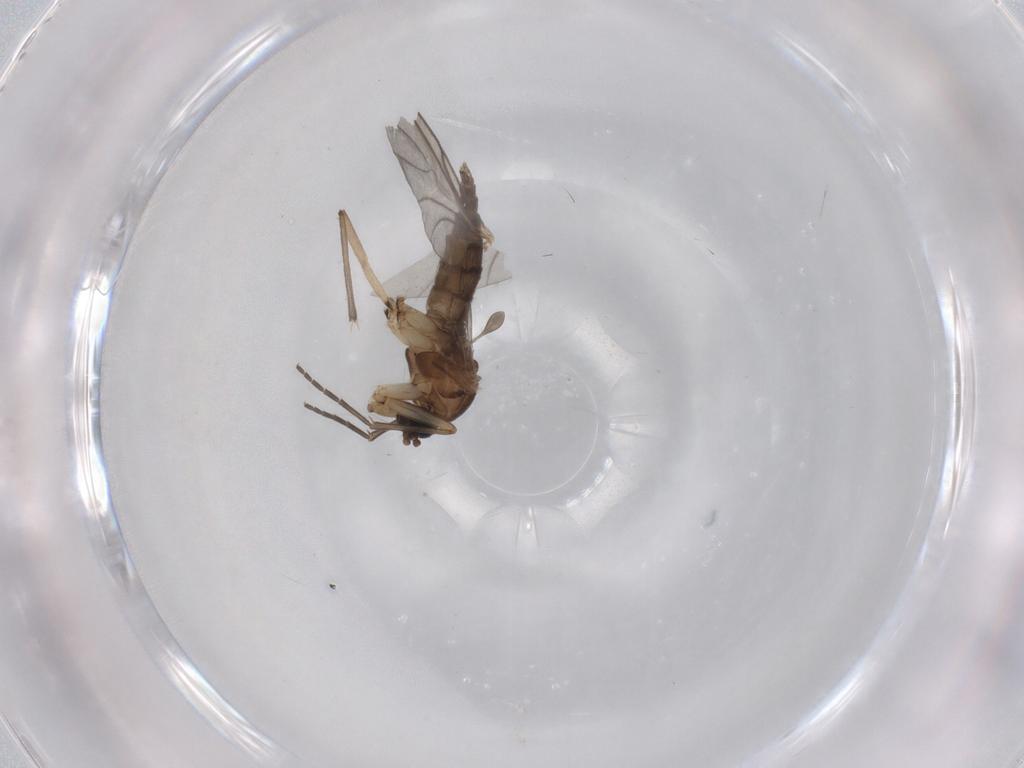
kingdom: Animalia
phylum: Arthropoda
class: Insecta
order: Diptera
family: Sciaridae
